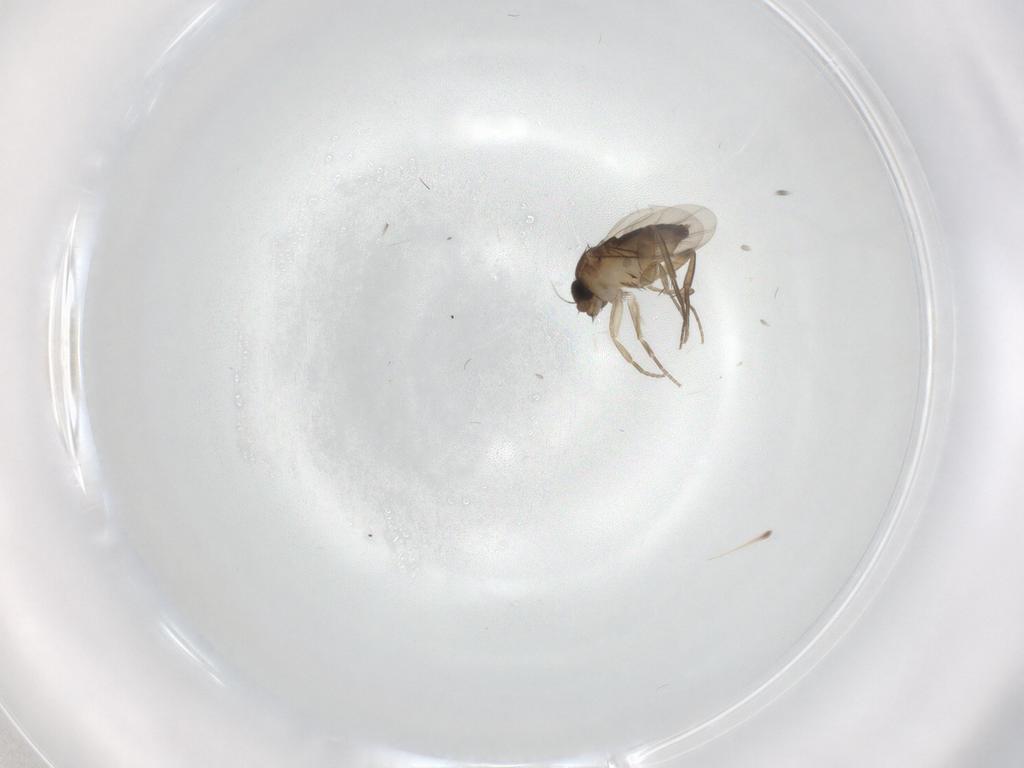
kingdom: Animalia
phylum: Arthropoda
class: Insecta
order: Diptera
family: Phoridae
